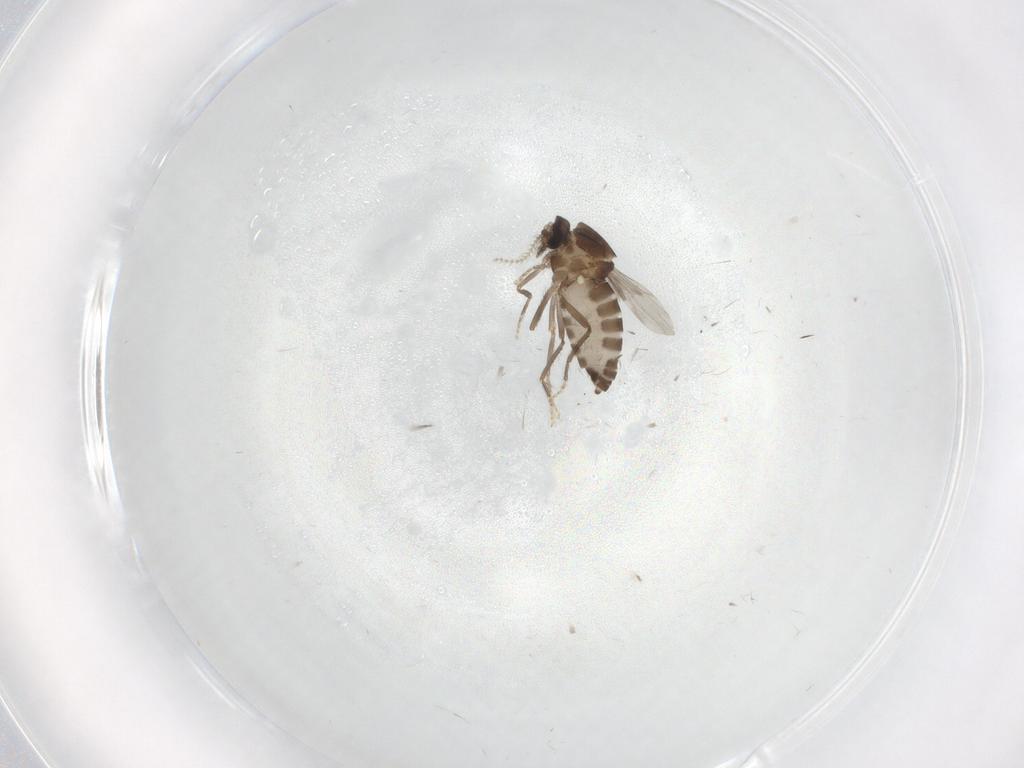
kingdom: Animalia
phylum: Arthropoda
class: Insecta
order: Diptera
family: Ceratopogonidae
